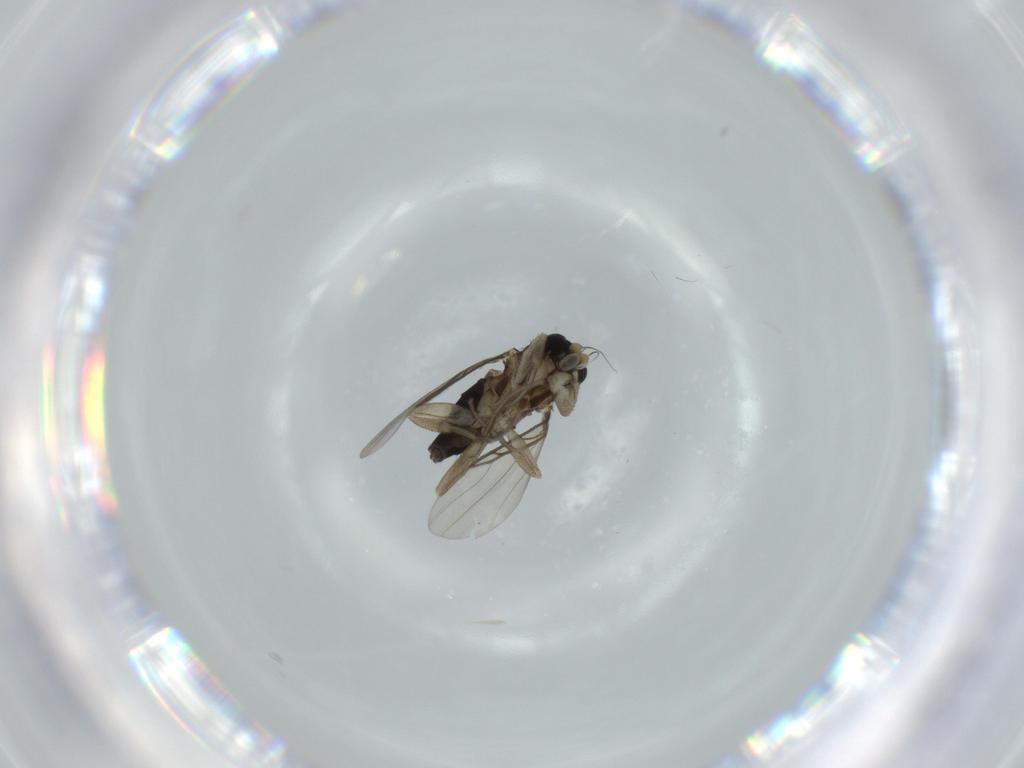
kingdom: Animalia
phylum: Arthropoda
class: Insecta
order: Diptera
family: Phoridae
